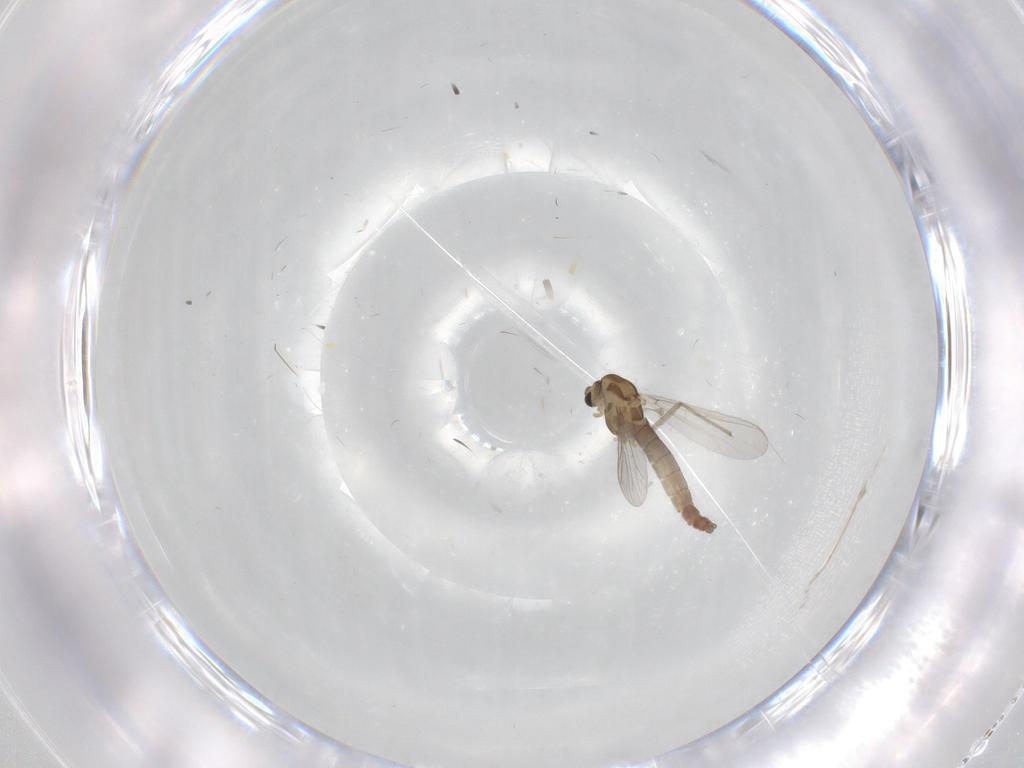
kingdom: Animalia
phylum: Arthropoda
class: Insecta
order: Diptera
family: Chironomidae
